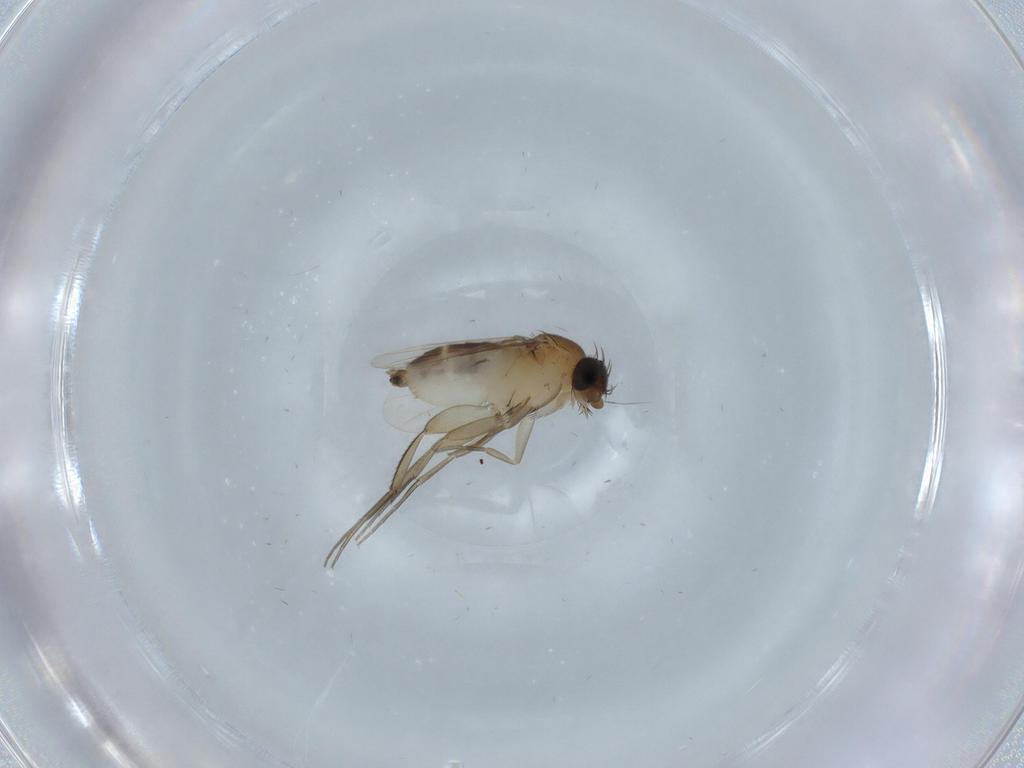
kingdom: Animalia
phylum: Arthropoda
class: Insecta
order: Diptera
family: Phoridae
